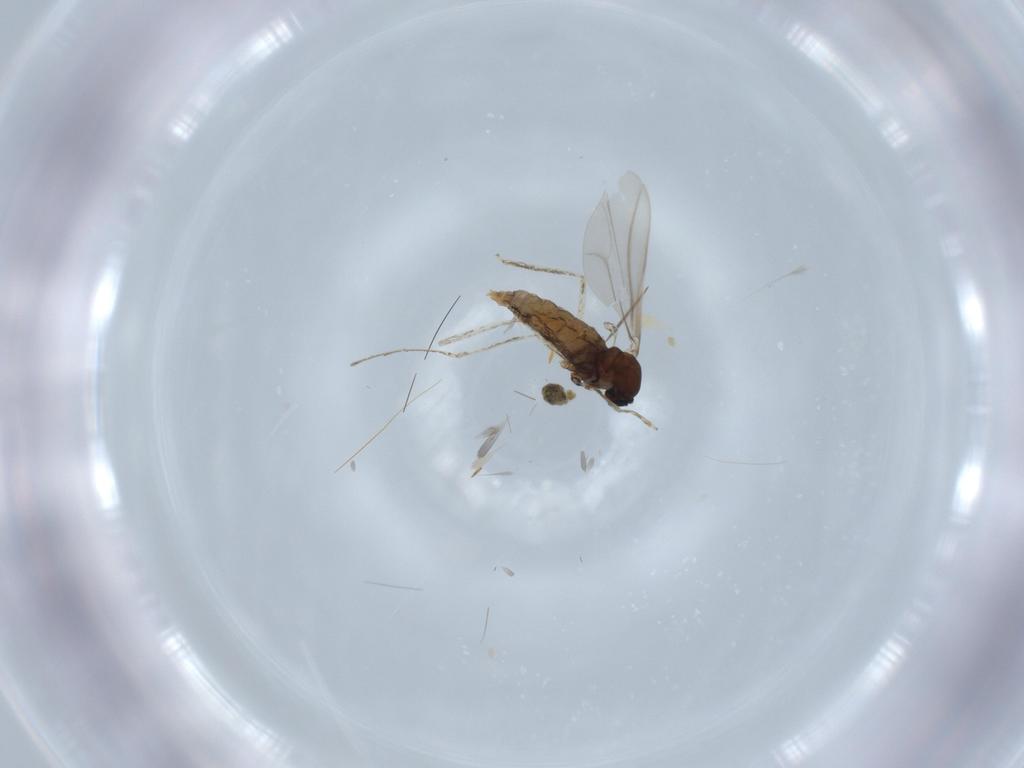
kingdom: Animalia
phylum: Arthropoda
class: Insecta
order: Diptera
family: Cecidomyiidae
